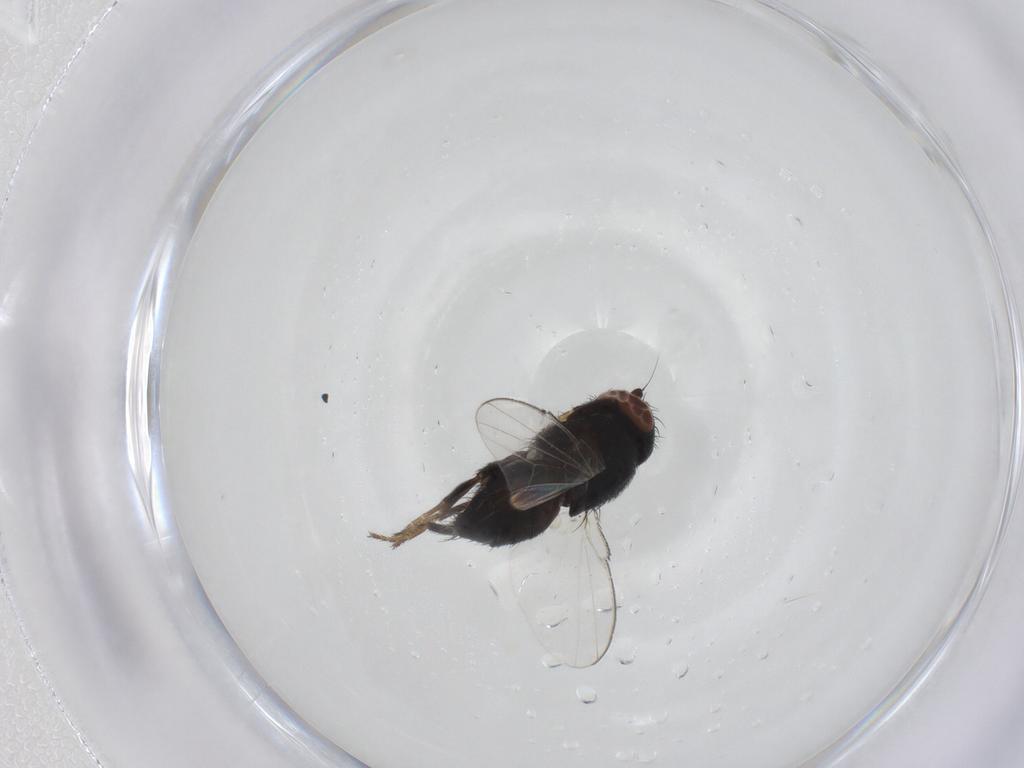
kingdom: Animalia
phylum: Arthropoda
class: Insecta
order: Diptera
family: Milichiidae
